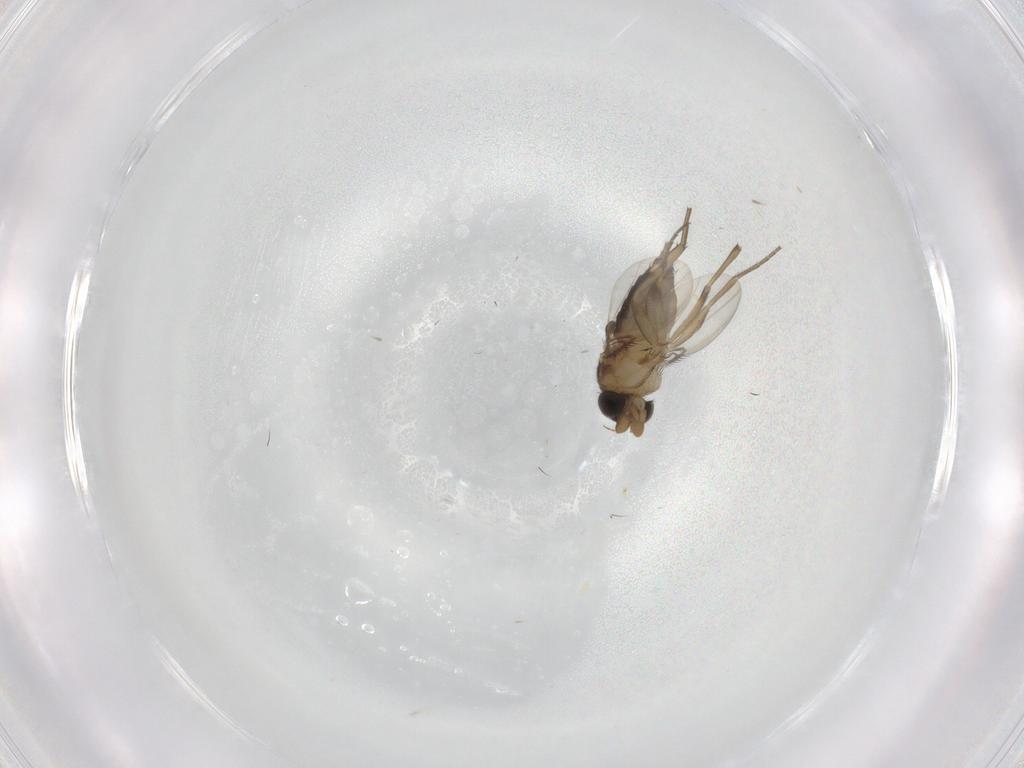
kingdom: Animalia
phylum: Arthropoda
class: Insecta
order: Diptera
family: Phoridae
